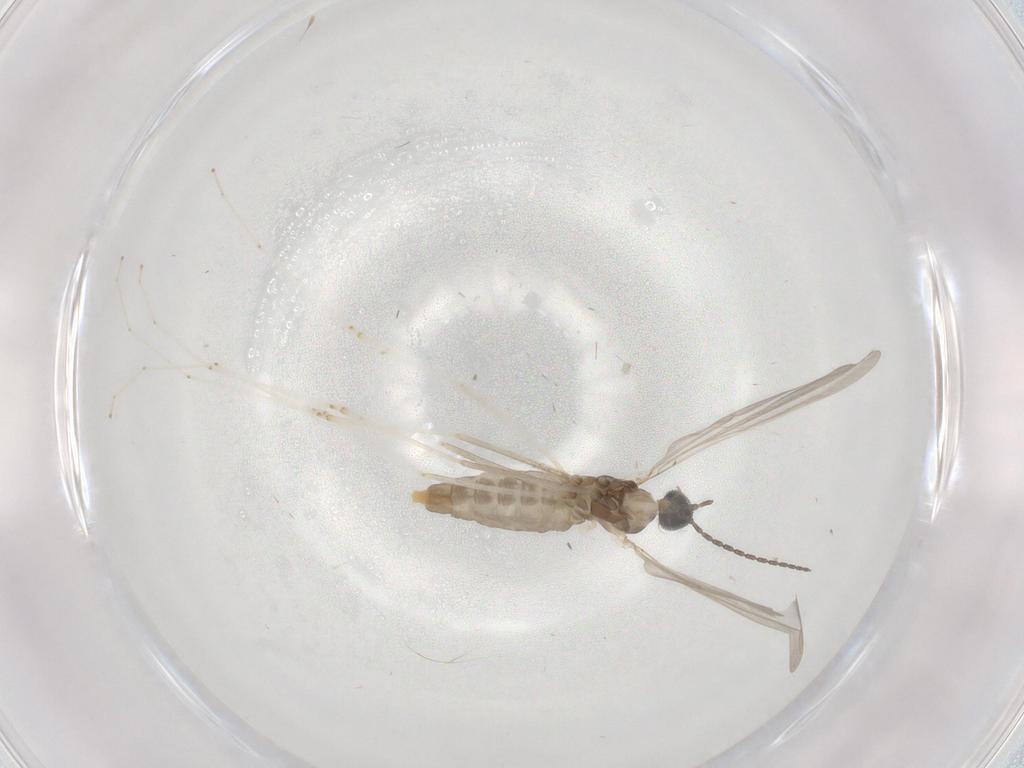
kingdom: Animalia
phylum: Arthropoda
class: Insecta
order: Diptera
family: Cecidomyiidae
